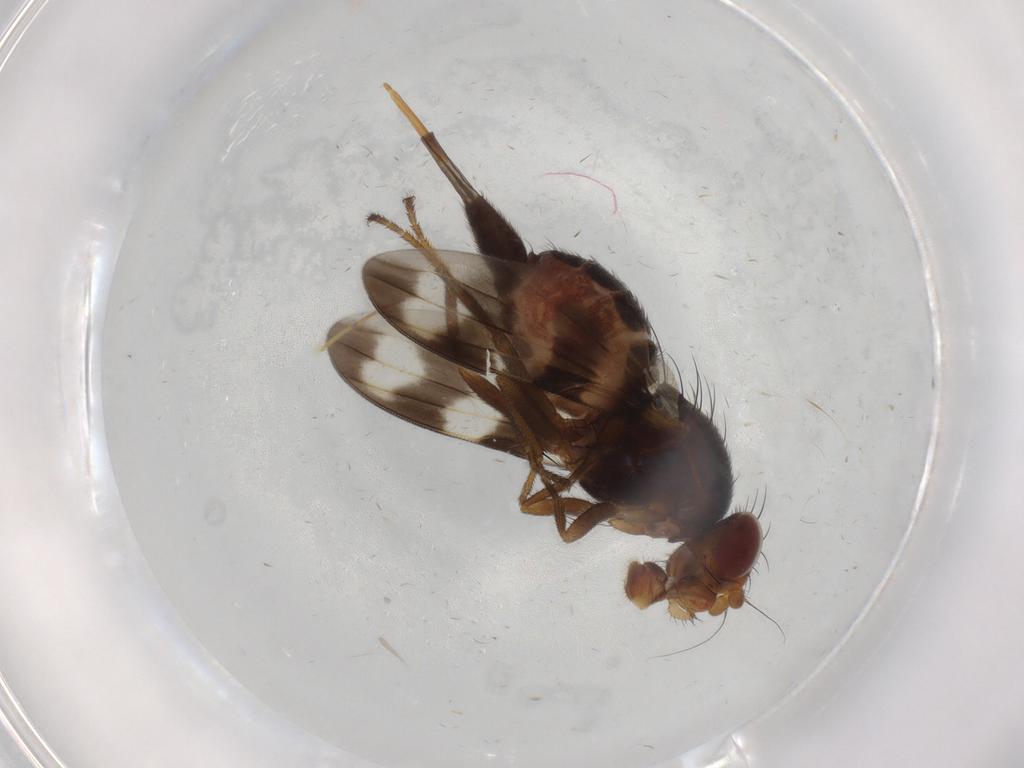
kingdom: Animalia
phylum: Arthropoda
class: Insecta
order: Diptera
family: Ulidiidae
